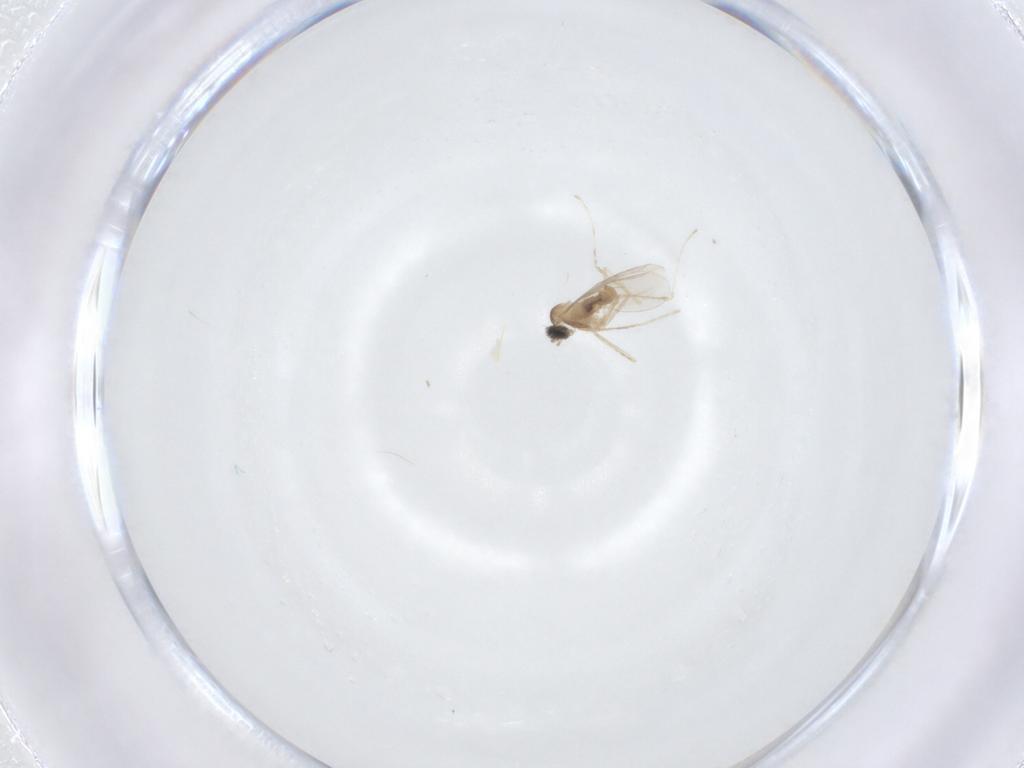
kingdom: Animalia
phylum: Arthropoda
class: Insecta
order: Diptera
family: Cecidomyiidae
